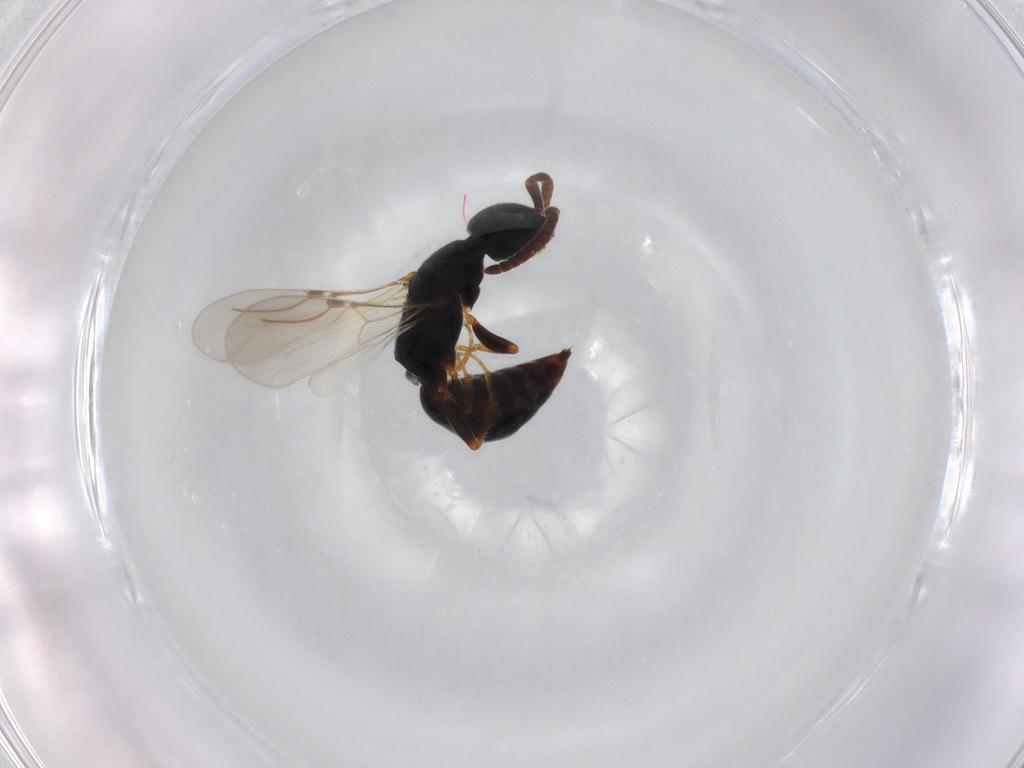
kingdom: Animalia
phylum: Arthropoda
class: Insecta
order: Hymenoptera
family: Bethylidae
